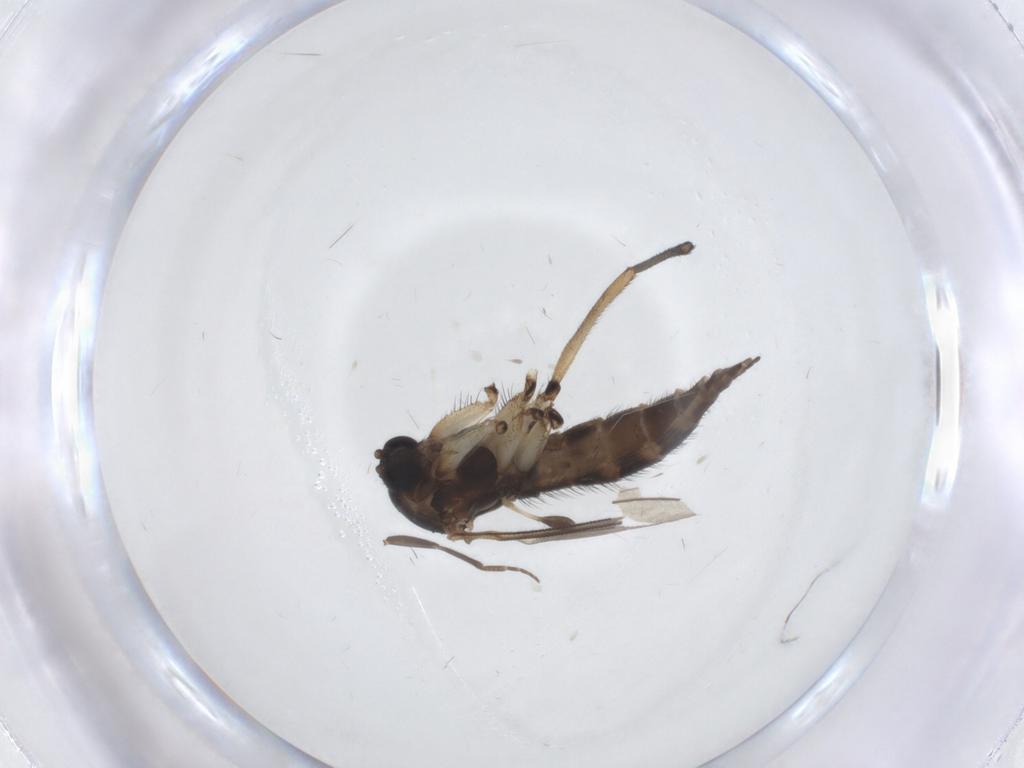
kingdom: Animalia
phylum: Arthropoda
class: Insecta
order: Diptera
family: Sciaridae
